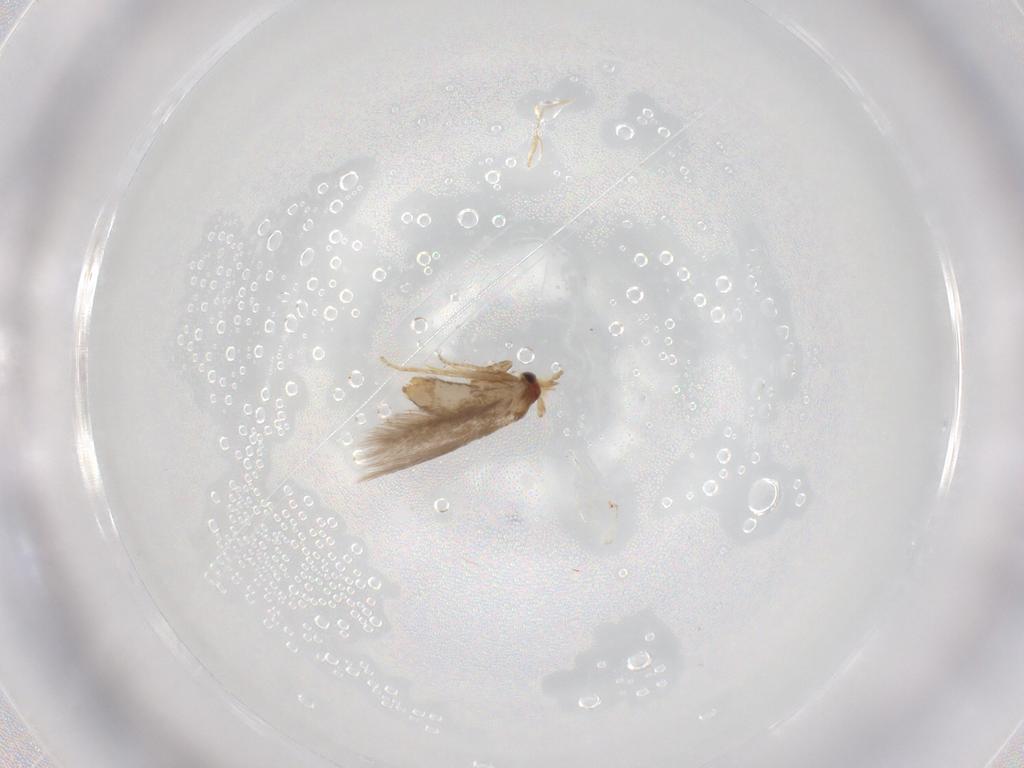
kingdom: Animalia
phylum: Arthropoda
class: Insecta
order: Lepidoptera
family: Nepticulidae
